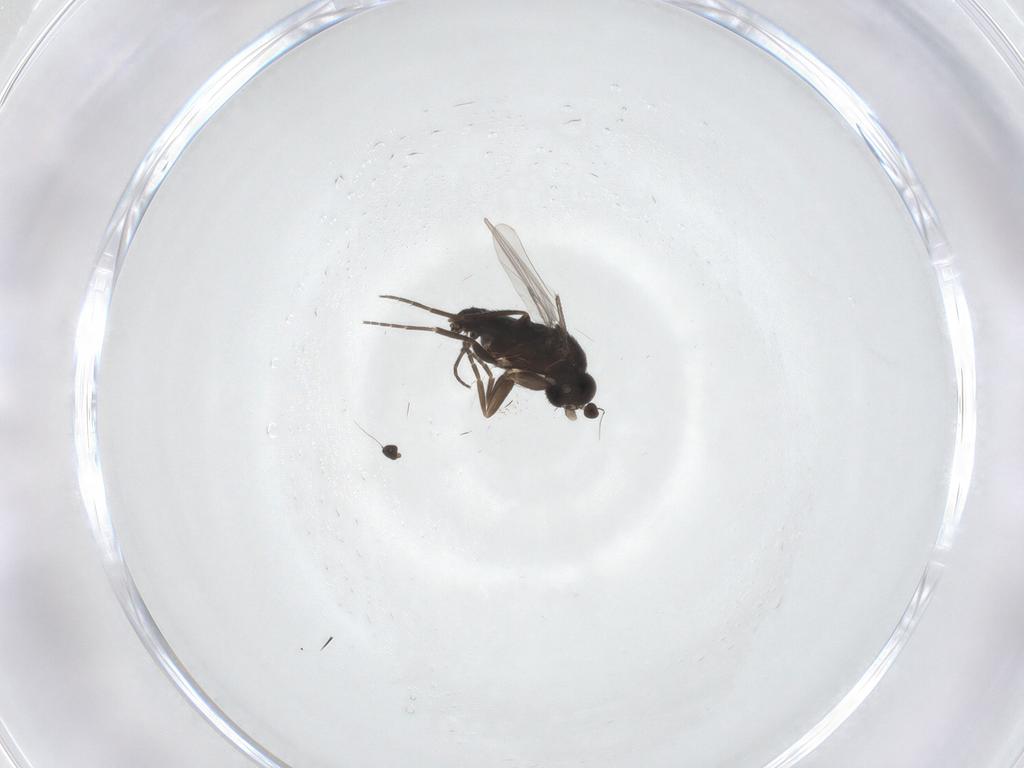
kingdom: Animalia
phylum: Arthropoda
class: Insecta
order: Diptera
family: Phoridae
